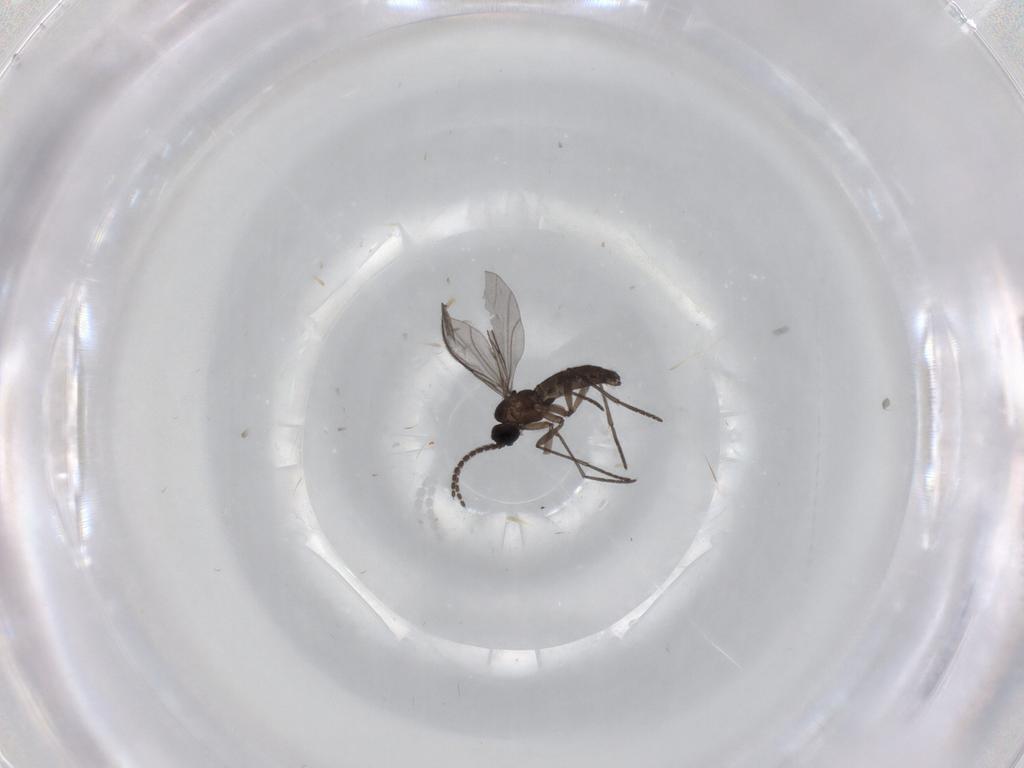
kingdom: Animalia
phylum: Arthropoda
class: Insecta
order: Diptera
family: Cecidomyiidae
